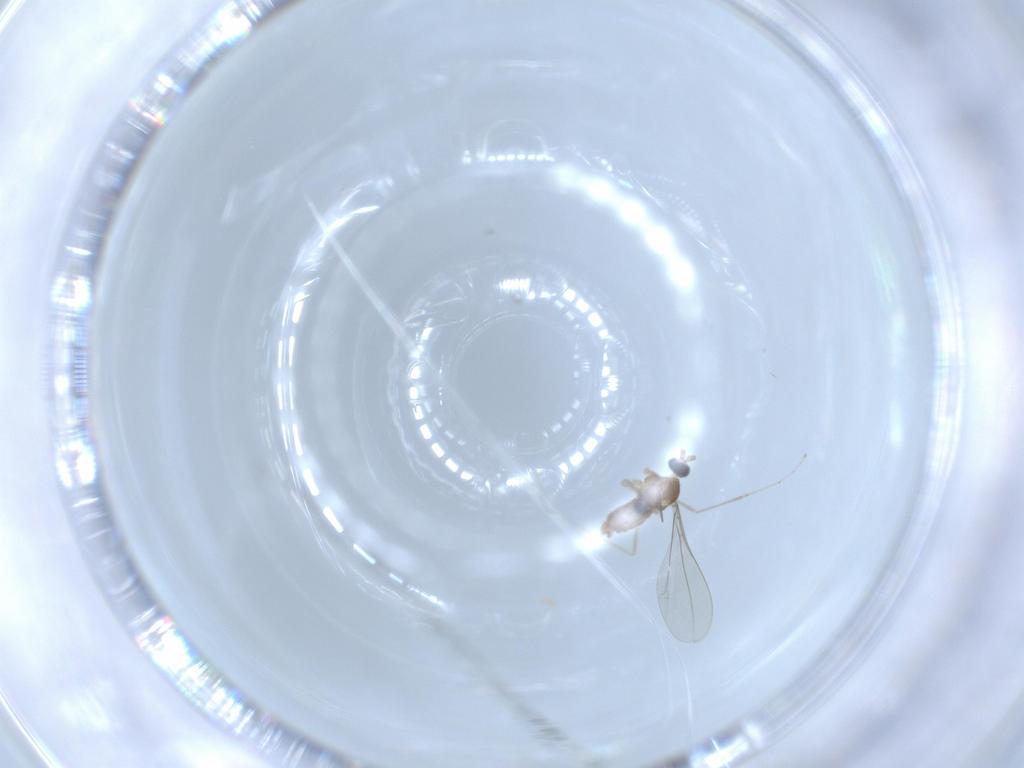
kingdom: Animalia
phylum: Arthropoda
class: Insecta
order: Diptera
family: Cecidomyiidae
